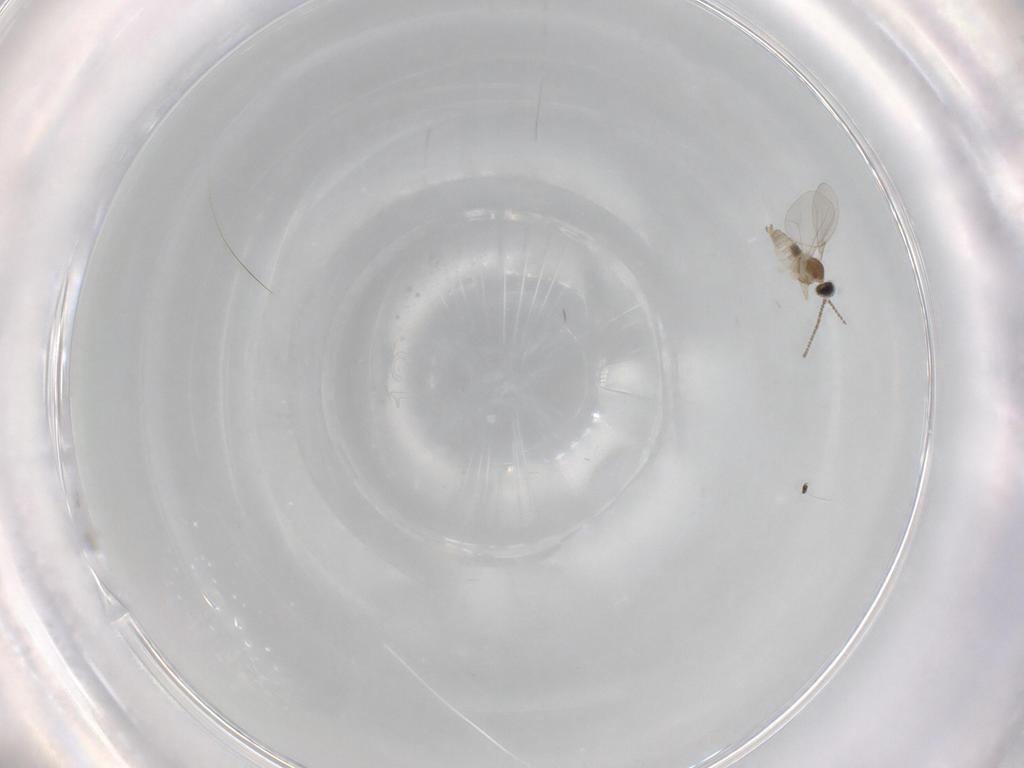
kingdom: Animalia
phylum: Arthropoda
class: Insecta
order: Diptera
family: Cecidomyiidae
